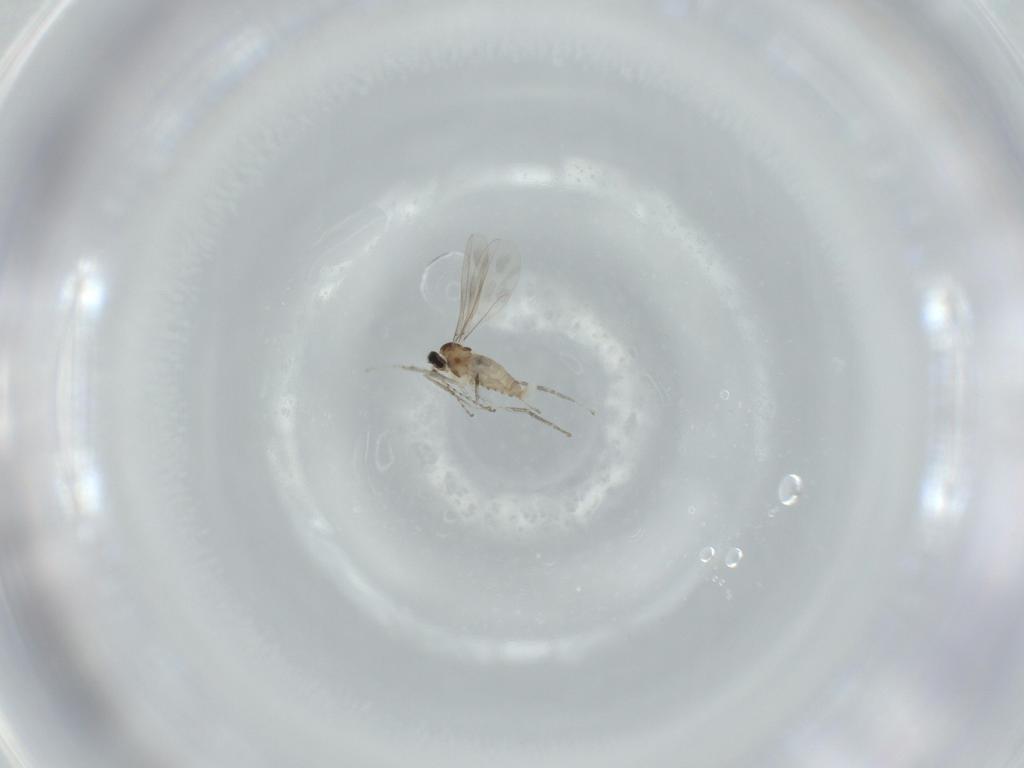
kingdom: Animalia
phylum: Arthropoda
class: Insecta
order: Diptera
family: Cecidomyiidae
